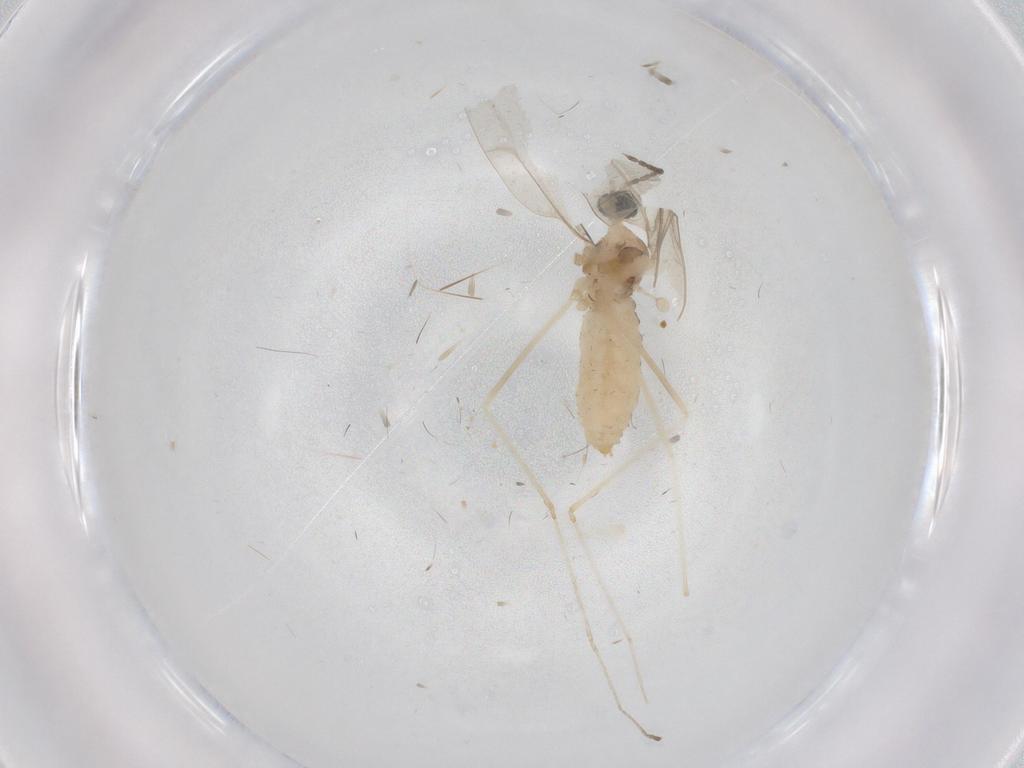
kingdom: Animalia
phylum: Arthropoda
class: Insecta
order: Diptera
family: Cecidomyiidae
